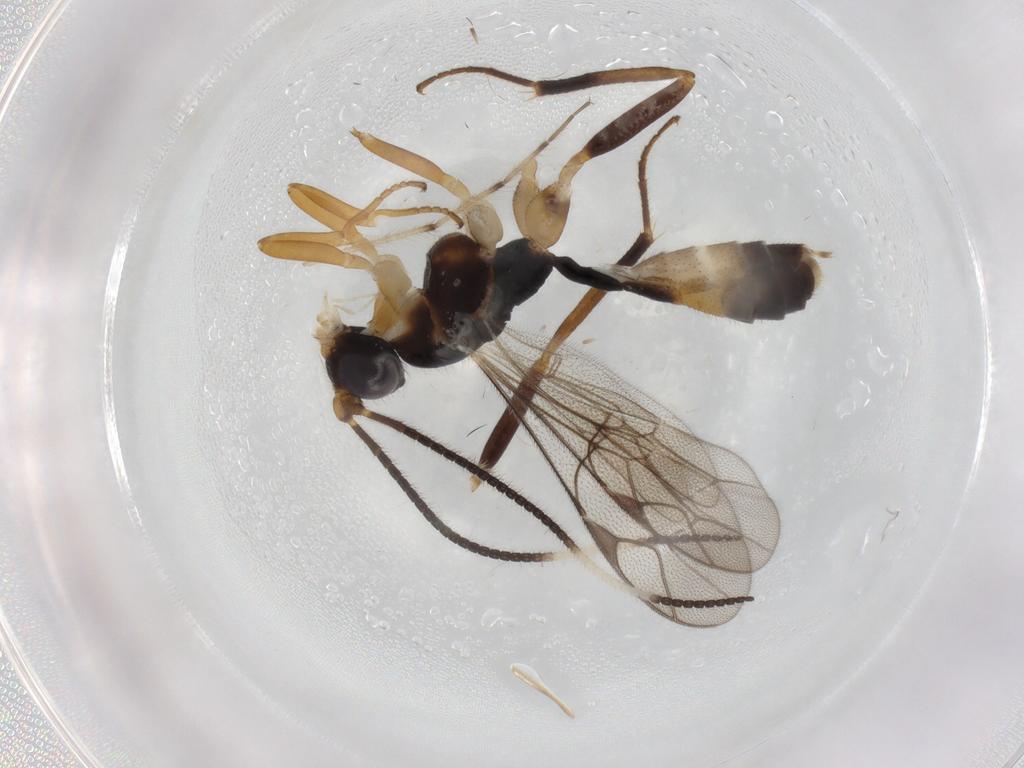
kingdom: Animalia
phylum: Arthropoda
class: Insecta
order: Hymenoptera
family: Ichneumonidae
